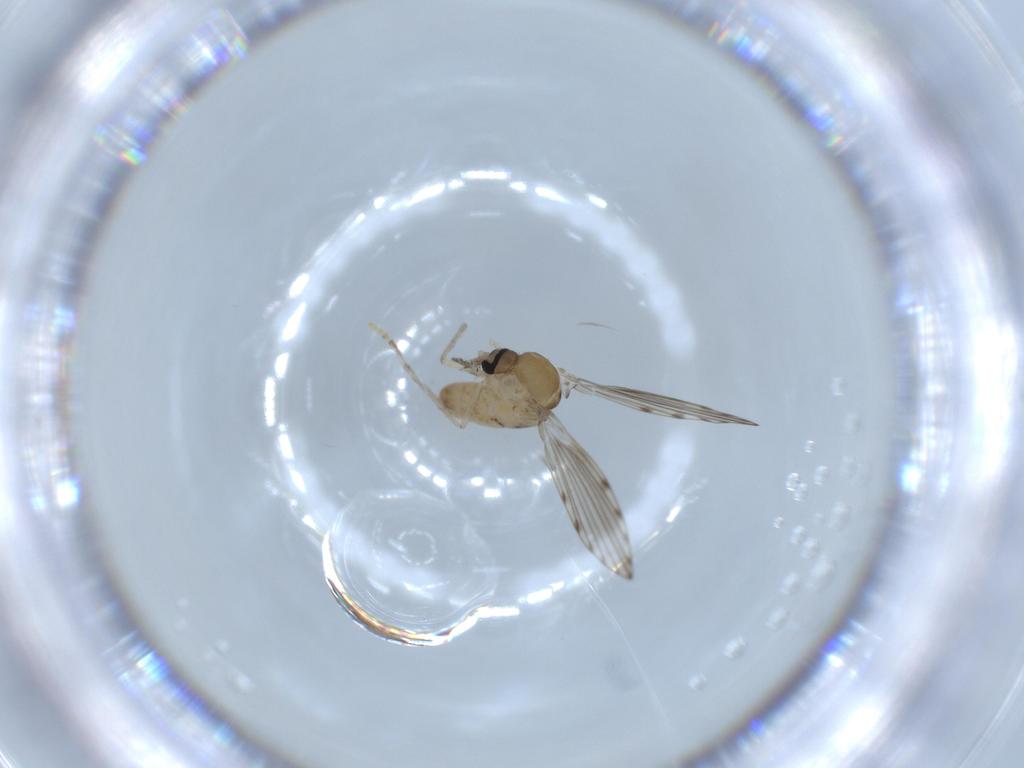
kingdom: Animalia
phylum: Arthropoda
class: Insecta
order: Diptera
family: Psychodidae
